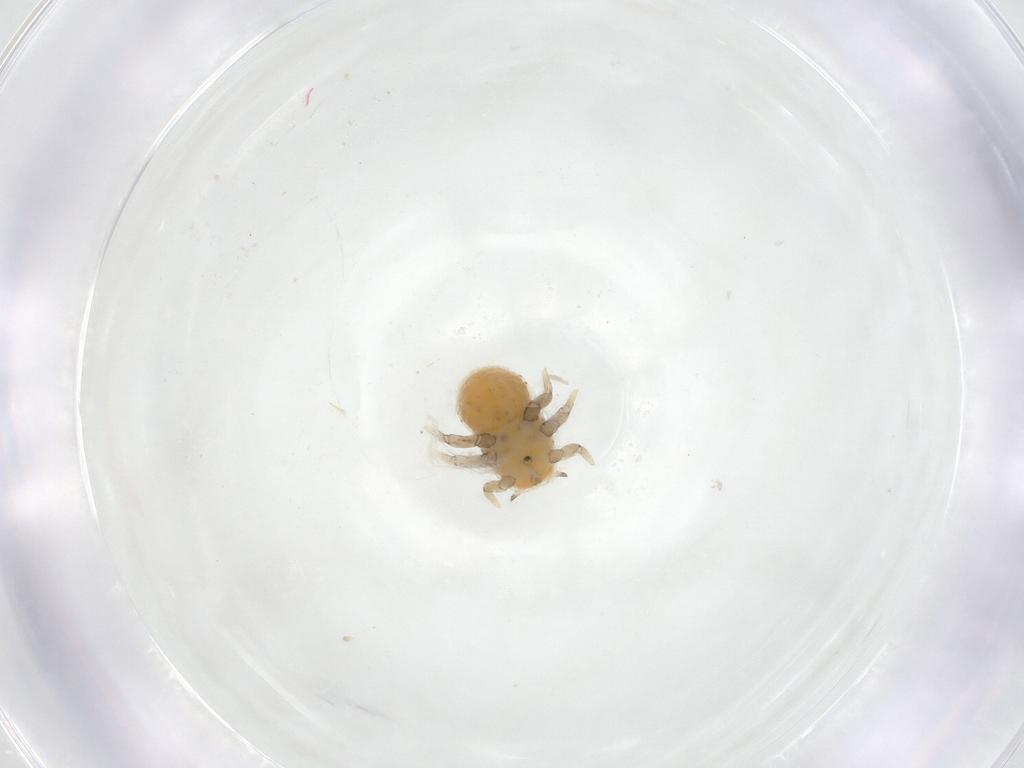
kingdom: Animalia
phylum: Arthropoda
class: Insecta
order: Hemiptera
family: Triozidae
